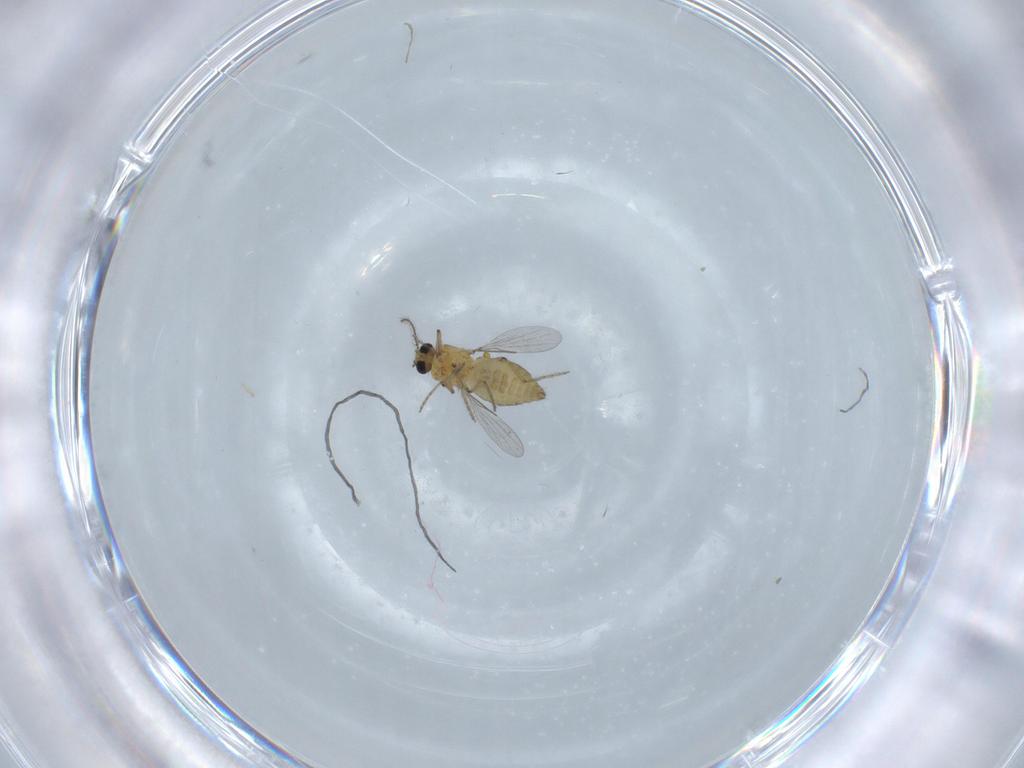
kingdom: Animalia
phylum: Arthropoda
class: Insecta
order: Diptera
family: Ceratopogonidae
